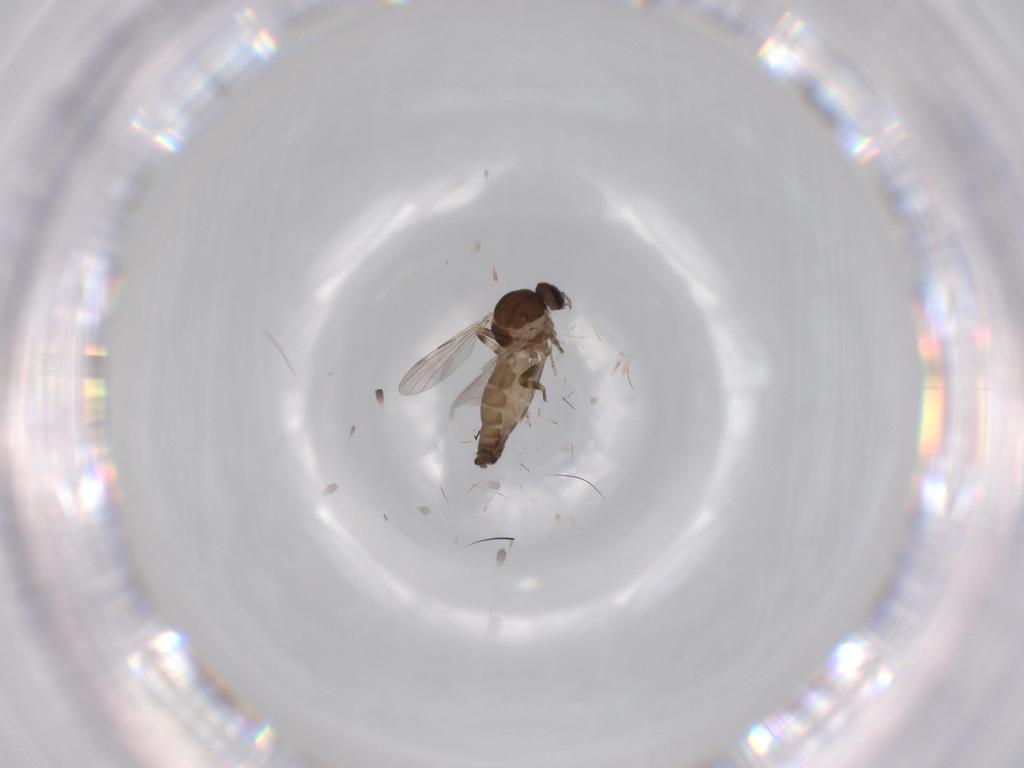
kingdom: Animalia
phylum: Arthropoda
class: Insecta
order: Diptera
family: Ceratopogonidae
